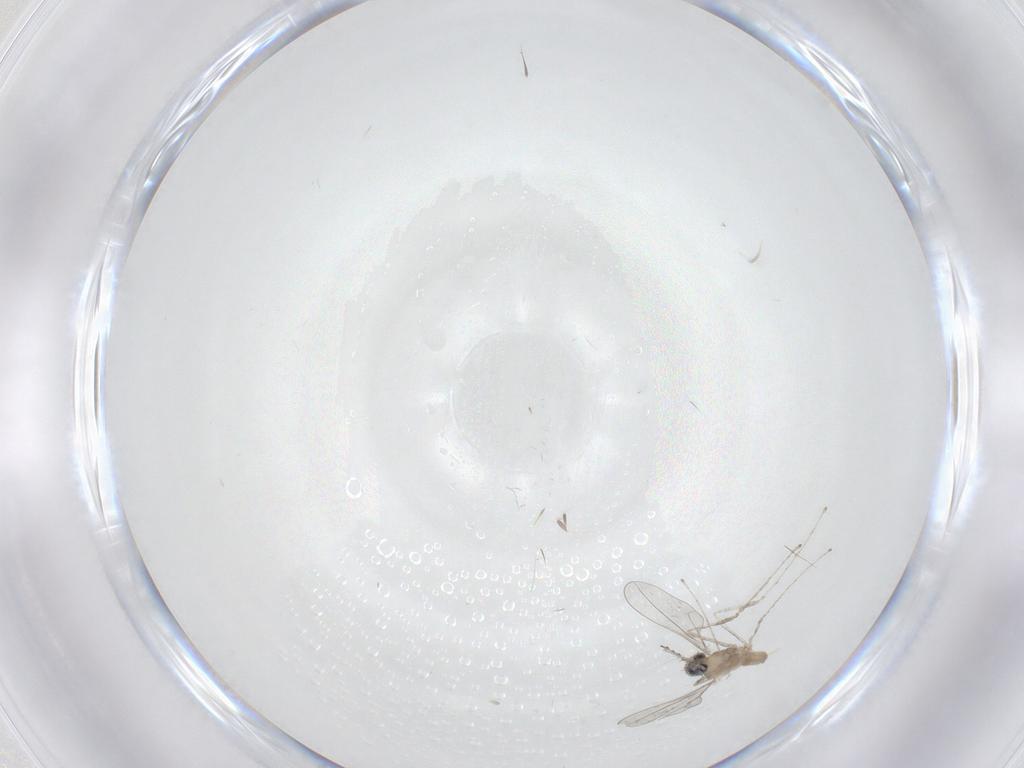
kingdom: Animalia
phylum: Arthropoda
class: Insecta
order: Diptera
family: Cecidomyiidae
